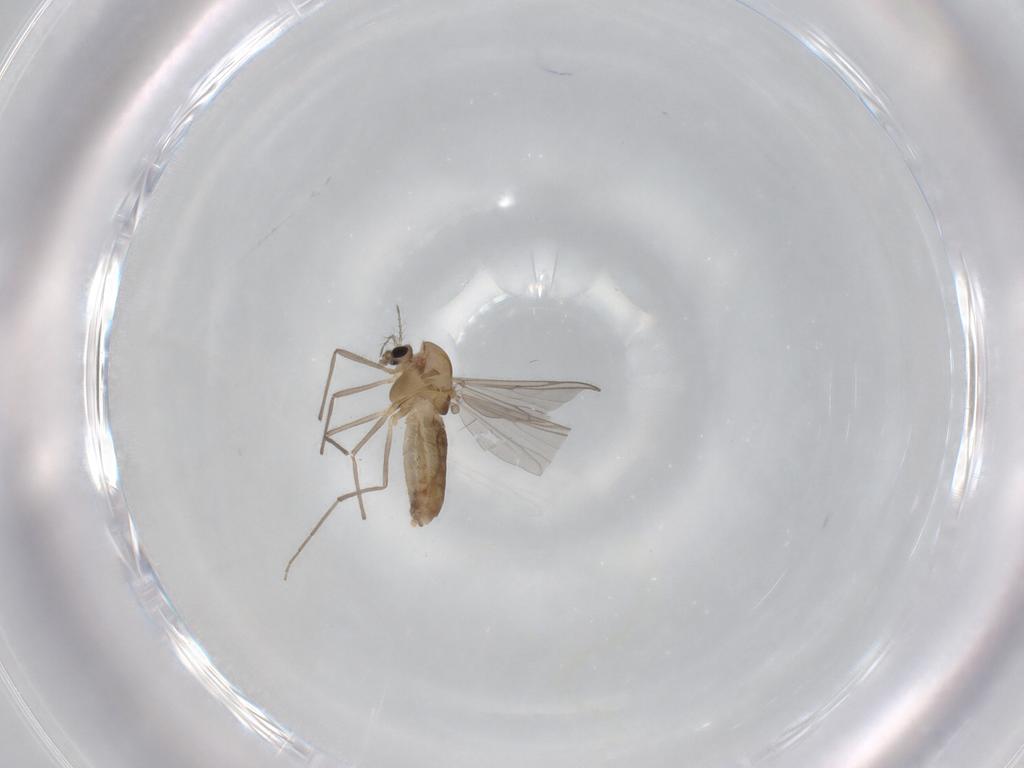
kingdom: Animalia
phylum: Arthropoda
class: Insecta
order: Diptera
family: Chironomidae
